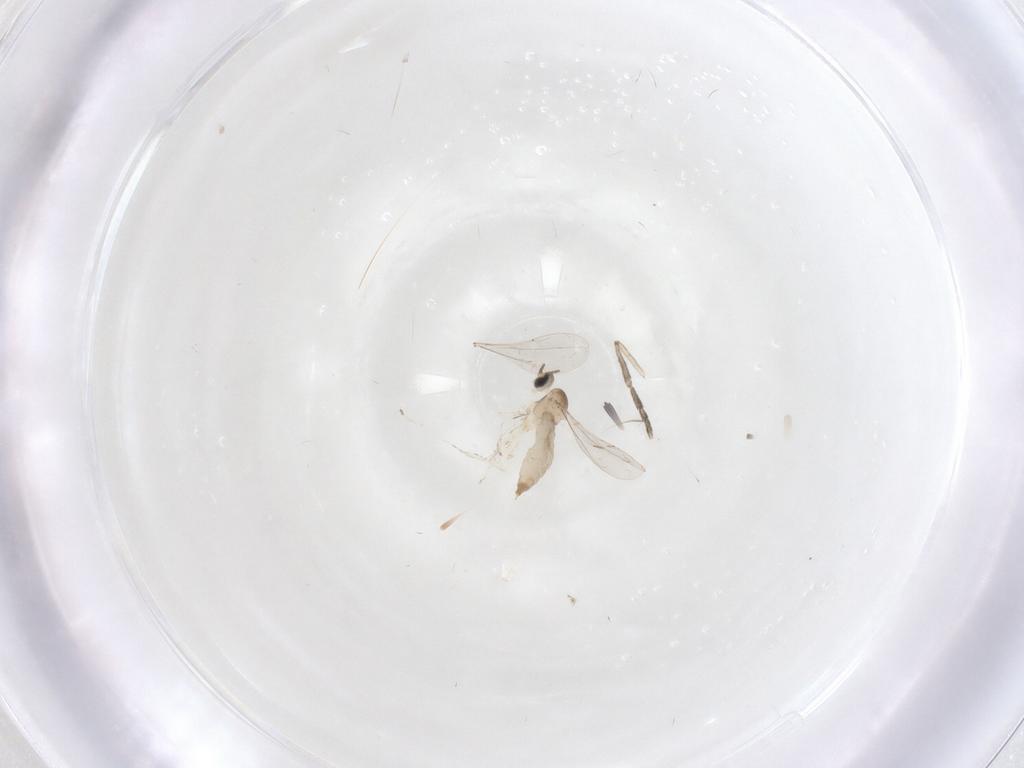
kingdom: Animalia
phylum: Arthropoda
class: Insecta
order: Diptera
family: Cecidomyiidae
